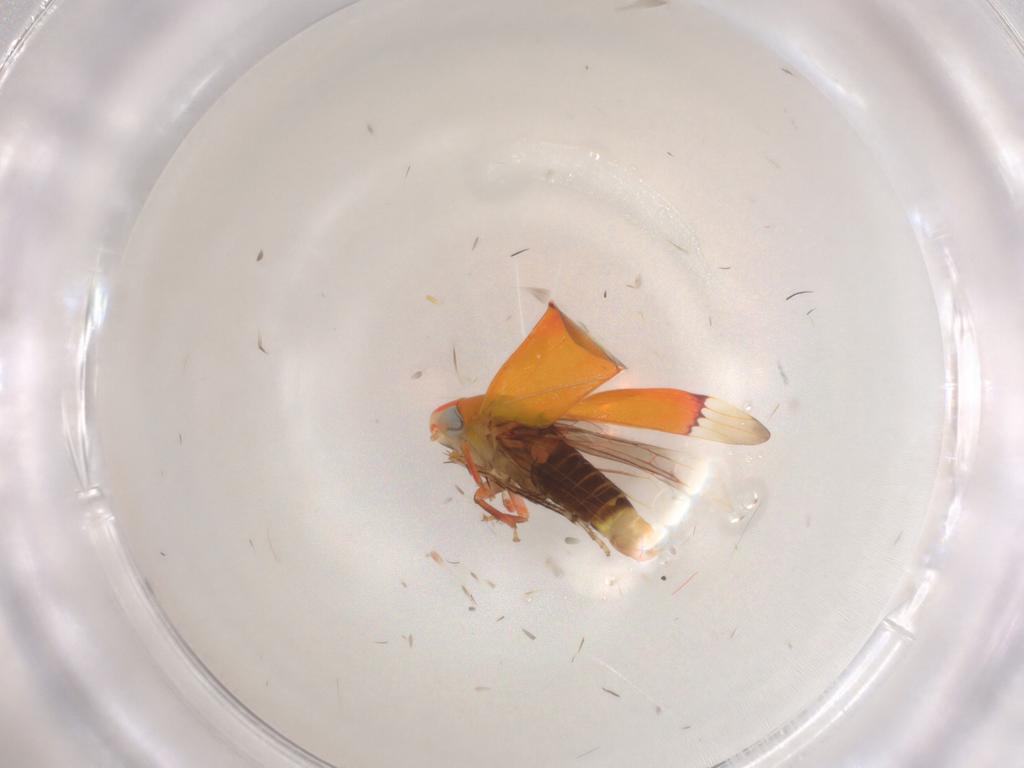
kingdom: Animalia
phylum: Arthropoda
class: Insecta
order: Hemiptera
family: Cicadellidae
